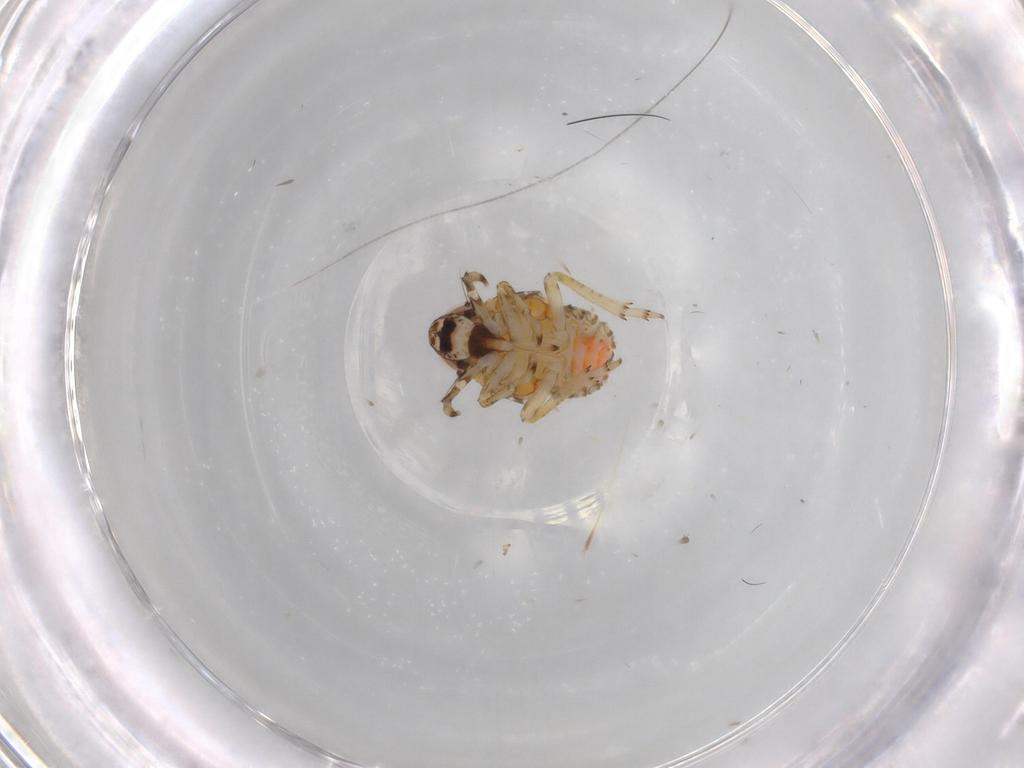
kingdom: Animalia
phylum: Arthropoda
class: Insecta
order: Hemiptera
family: Issidae
